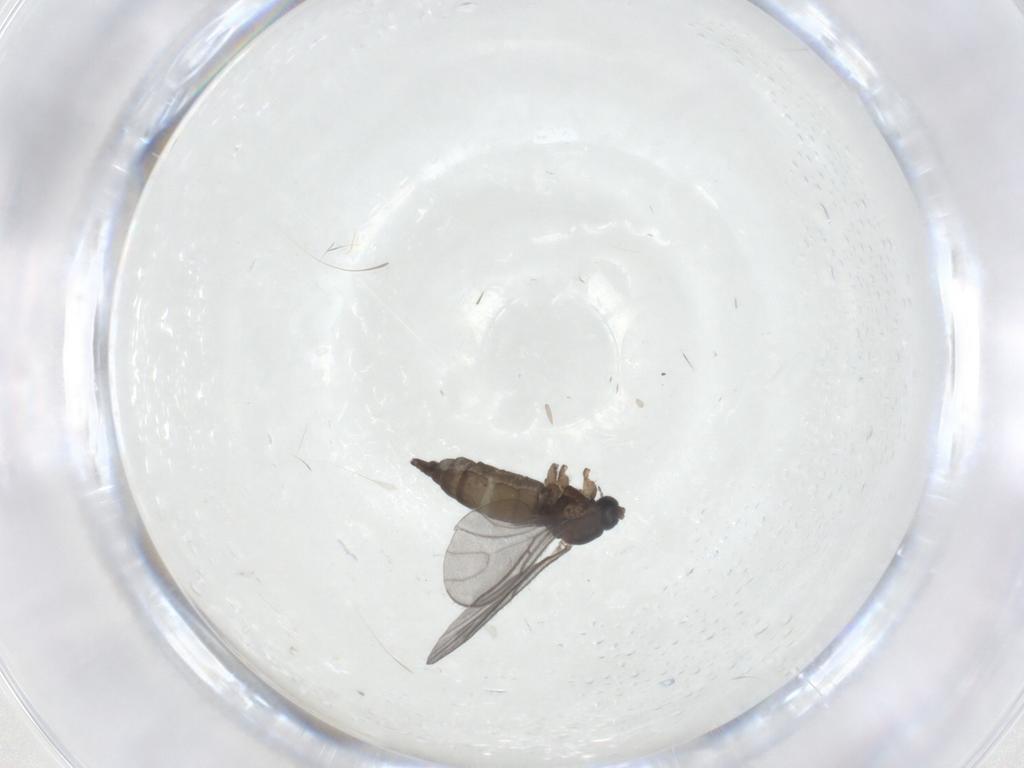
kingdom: Animalia
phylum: Arthropoda
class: Insecta
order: Diptera
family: Sciaridae
